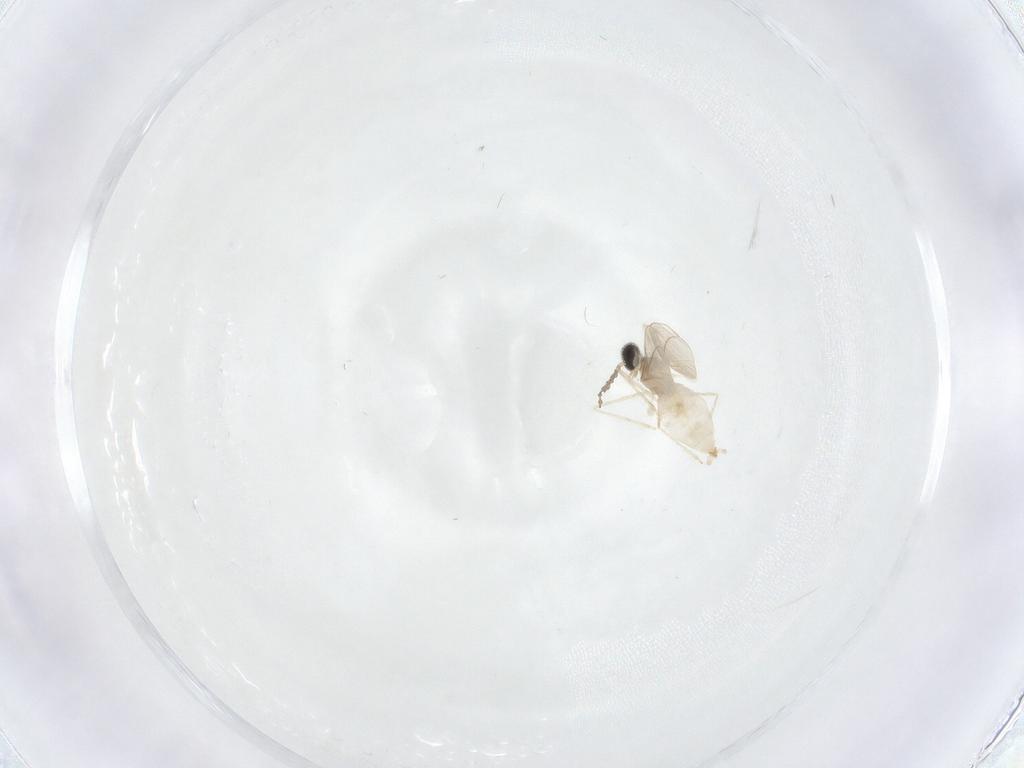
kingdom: Animalia
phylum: Arthropoda
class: Insecta
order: Diptera
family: Cecidomyiidae
